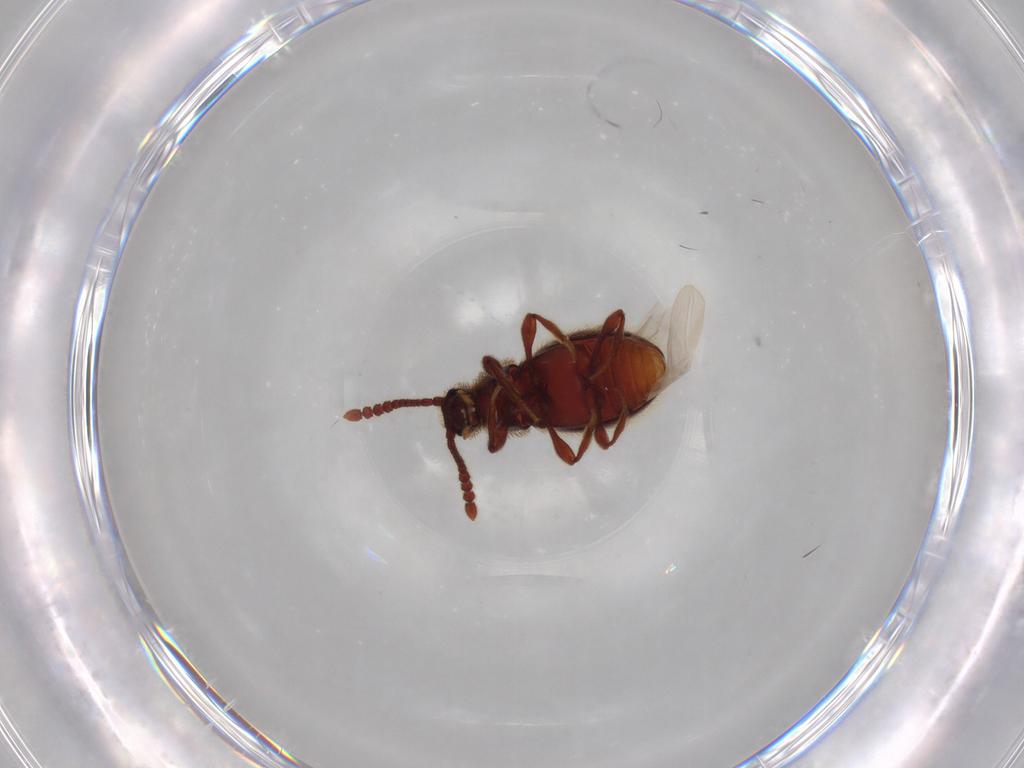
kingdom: Animalia
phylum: Arthropoda
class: Insecta
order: Coleoptera
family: Staphylinidae
